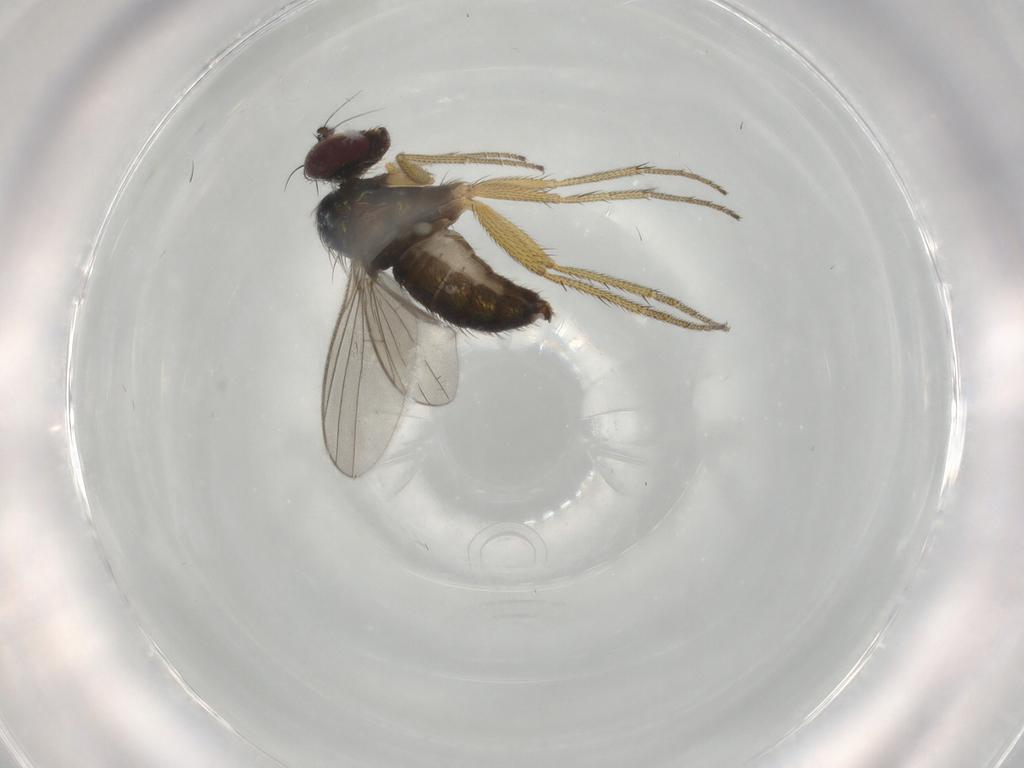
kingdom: Animalia
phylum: Arthropoda
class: Insecta
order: Diptera
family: Dolichopodidae
